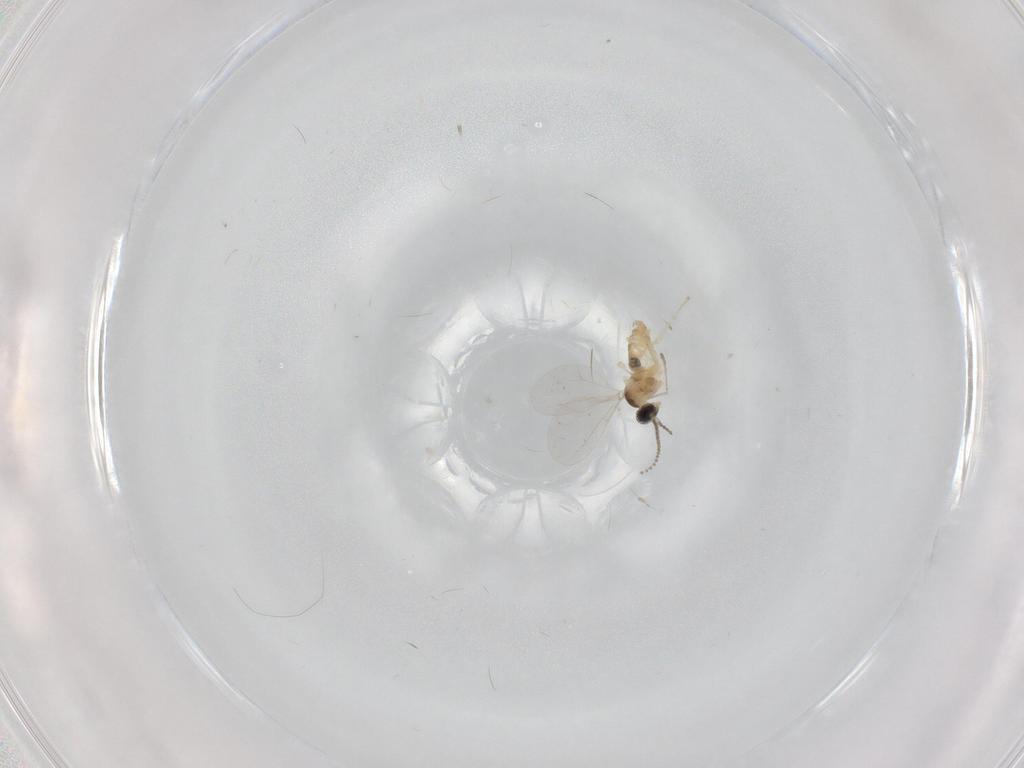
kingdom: Animalia
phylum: Arthropoda
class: Insecta
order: Diptera
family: Cecidomyiidae
